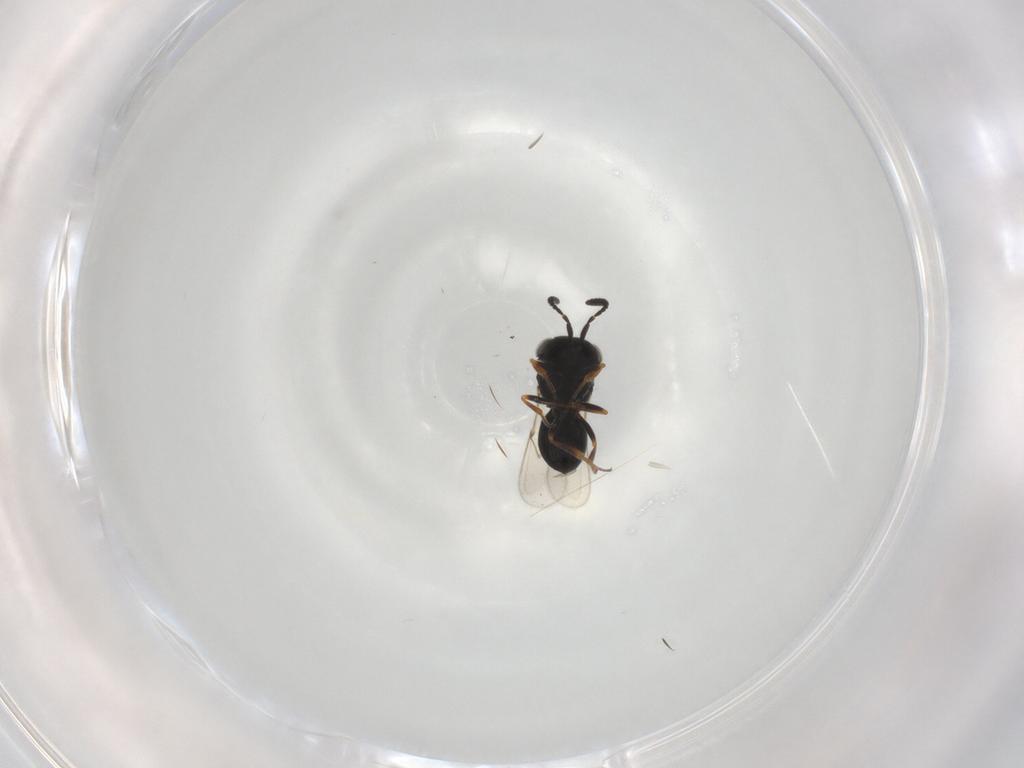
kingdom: Animalia
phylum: Arthropoda
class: Insecta
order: Hymenoptera
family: Scelionidae
